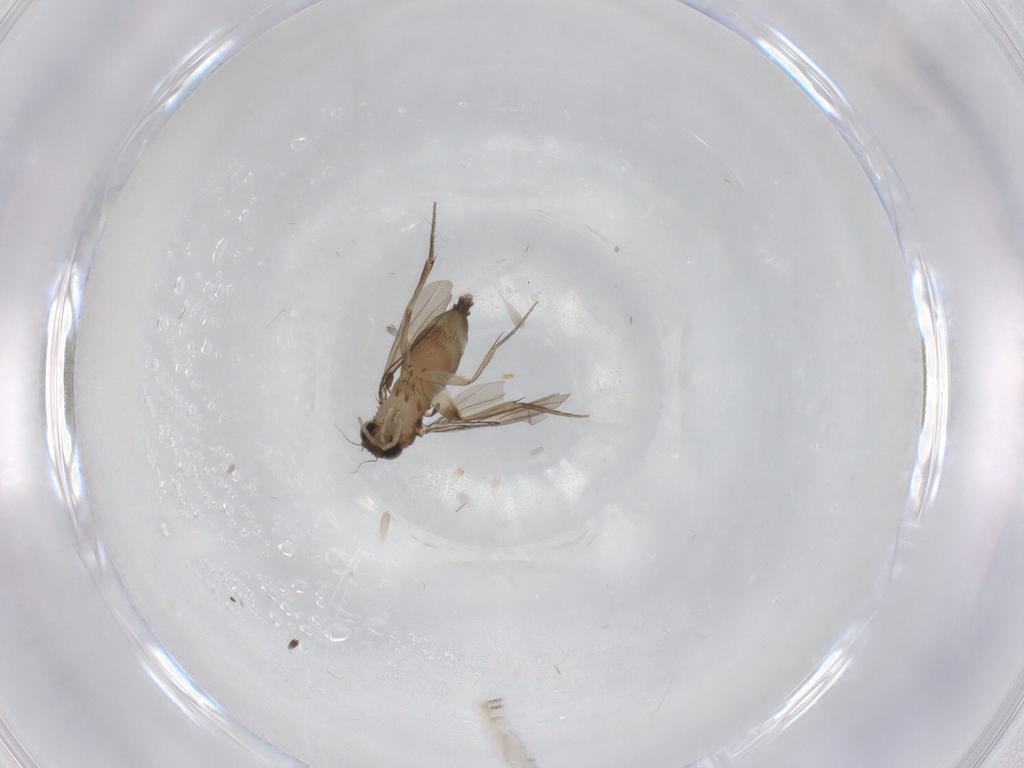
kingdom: Animalia
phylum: Arthropoda
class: Insecta
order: Diptera
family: Phoridae
